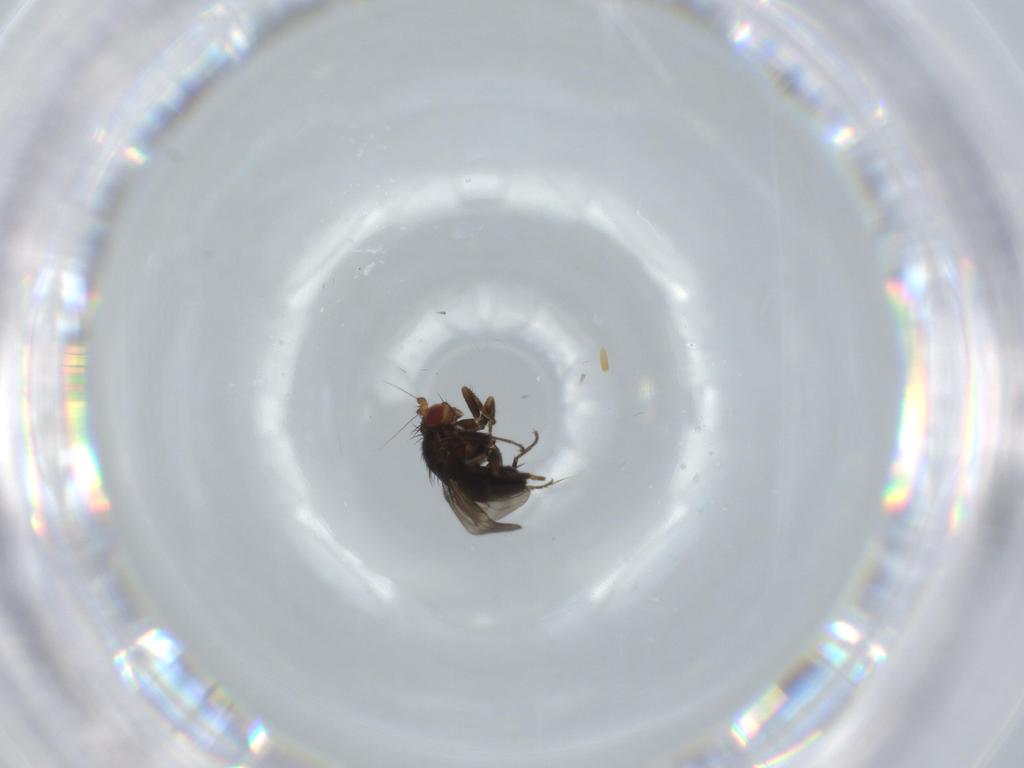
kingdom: Animalia
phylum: Arthropoda
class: Insecta
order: Diptera
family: Sphaeroceridae
